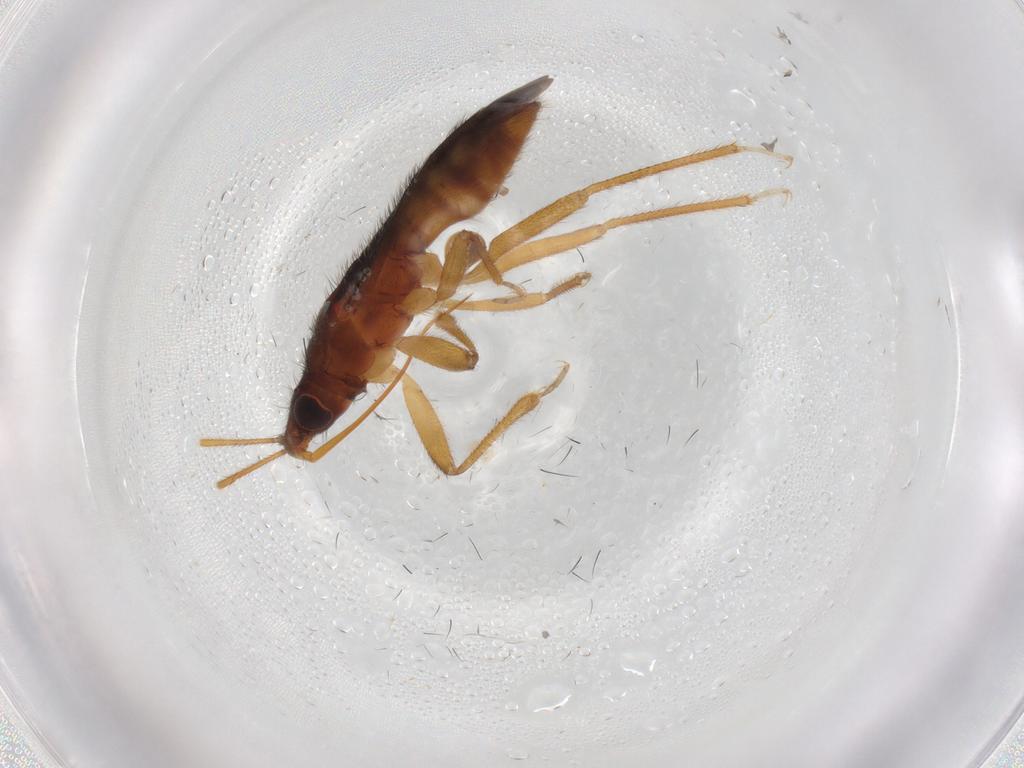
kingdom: Animalia
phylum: Arthropoda
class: Insecta
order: Hemiptera
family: Anthocoridae
